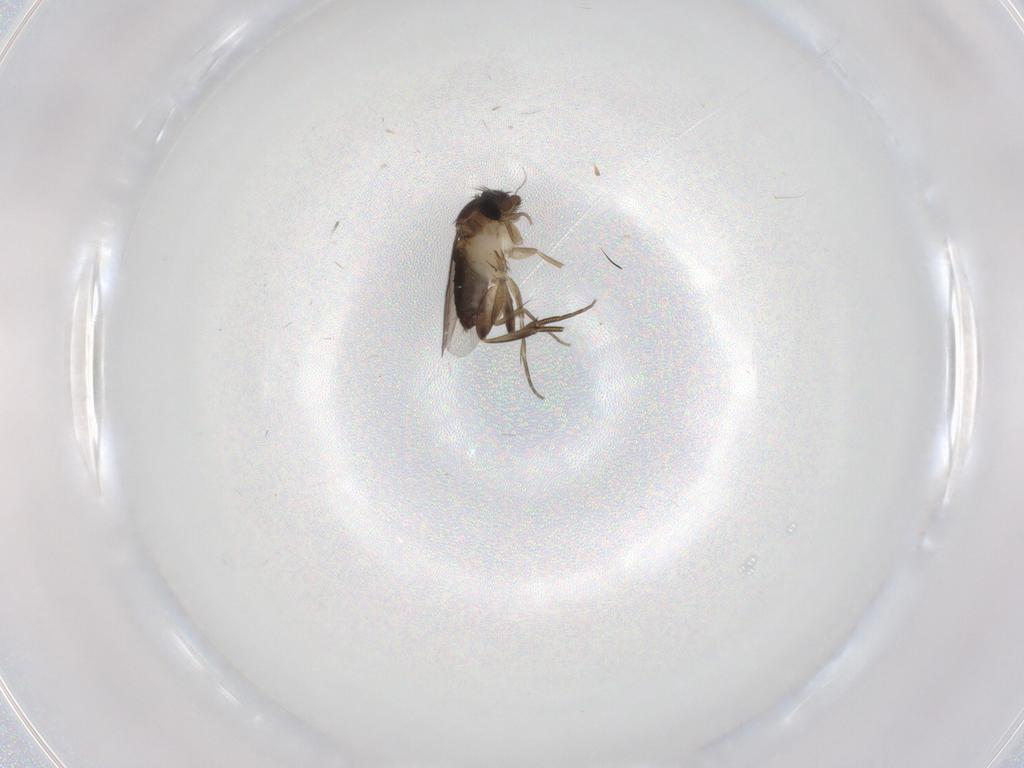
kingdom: Animalia
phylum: Arthropoda
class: Insecta
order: Diptera
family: Phoridae
